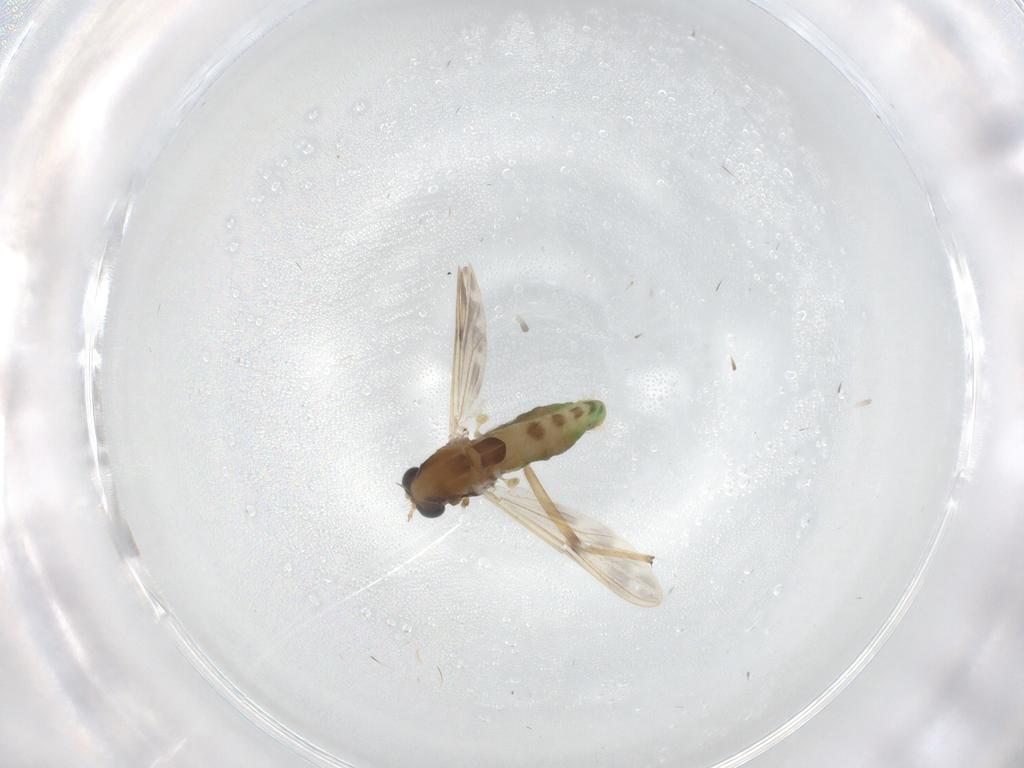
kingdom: Animalia
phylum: Arthropoda
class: Insecta
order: Diptera
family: Chironomidae
